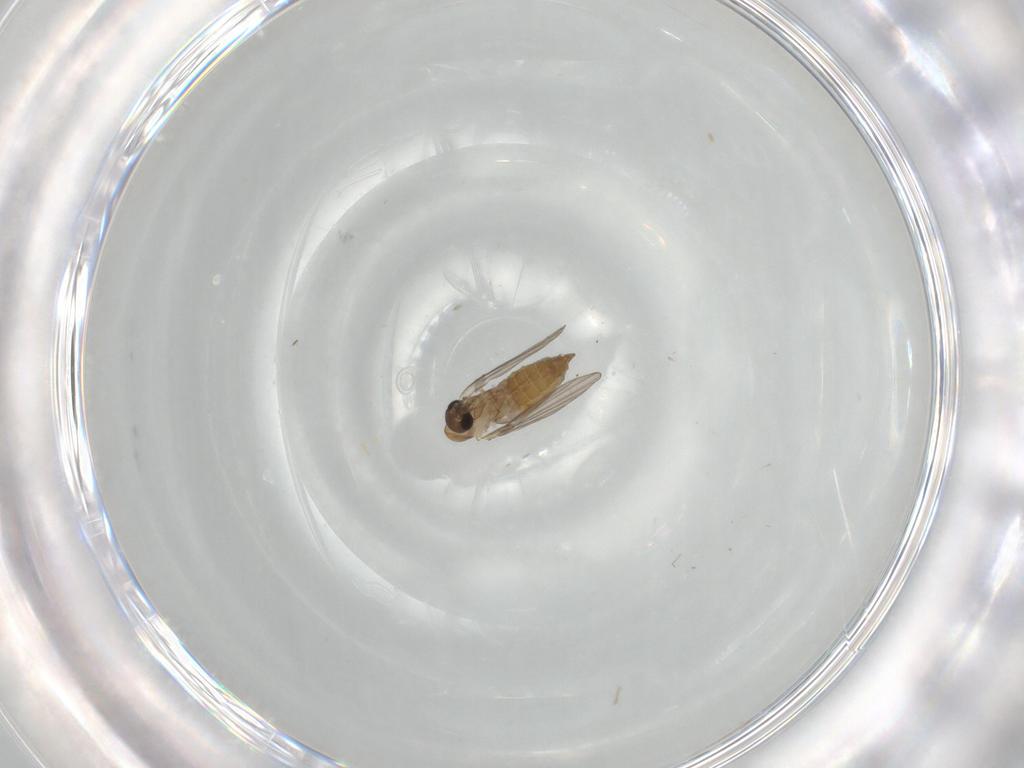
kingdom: Animalia
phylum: Arthropoda
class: Insecta
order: Diptera
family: Psychodidae
